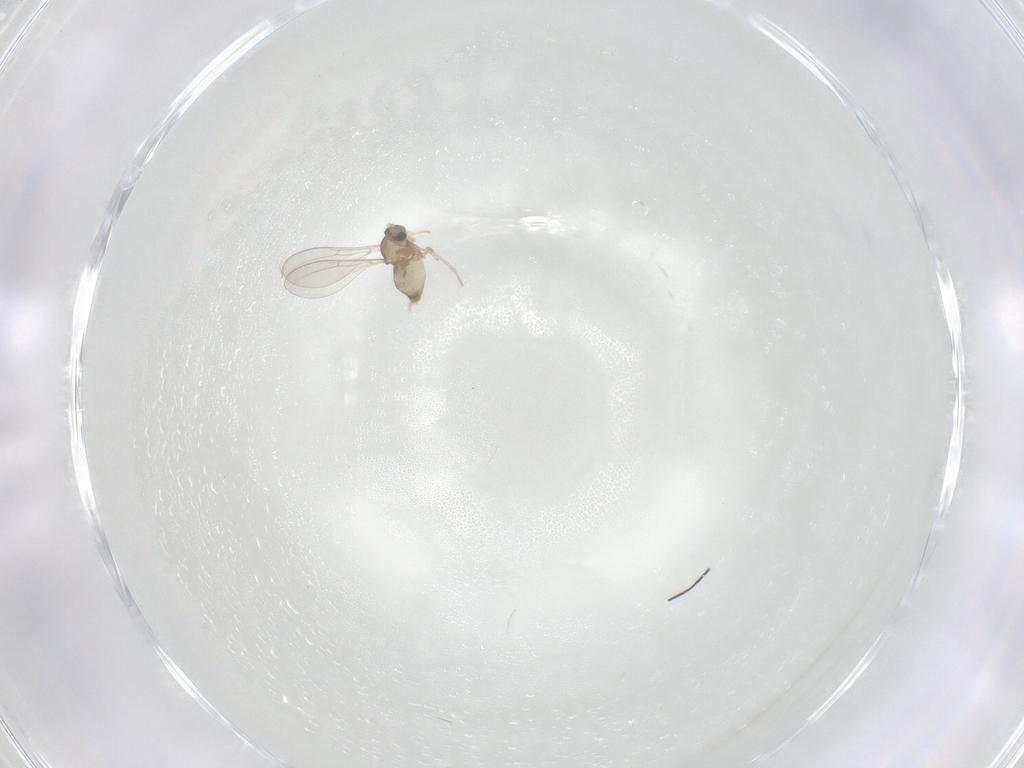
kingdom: Animalia
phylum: Arthropoda
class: Insecta
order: Diptera
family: Cecidomyiidae
